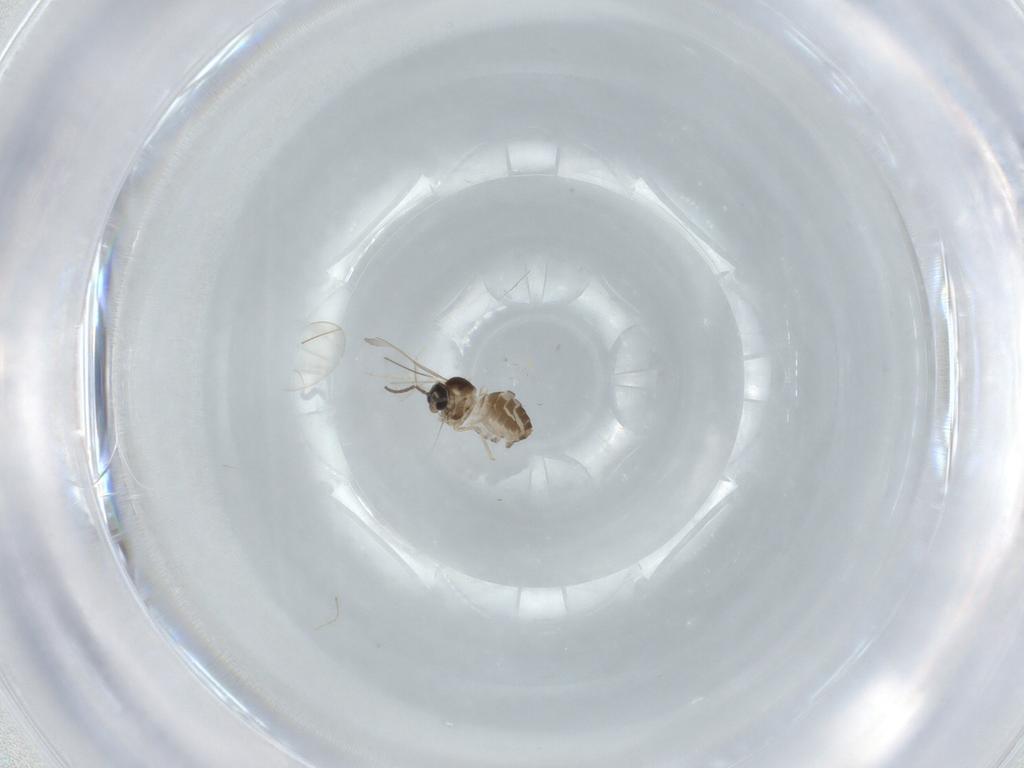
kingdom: Animalia
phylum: Arthropoda
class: Insecta
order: Diptera
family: Cecidomyiidae
